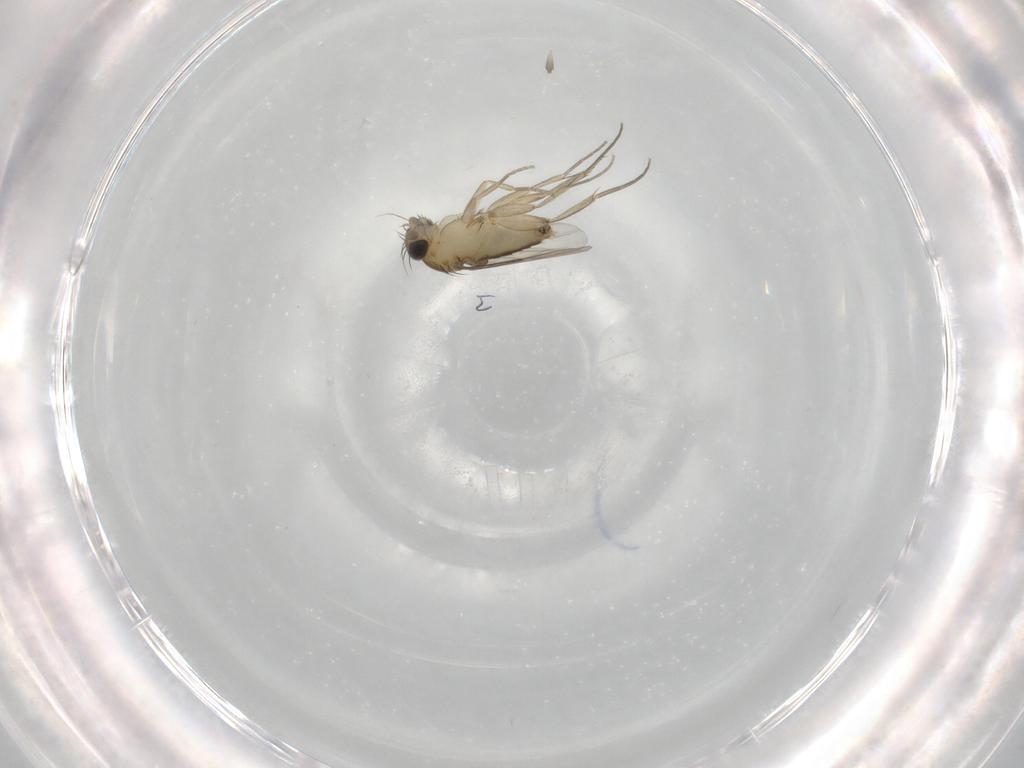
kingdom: Animalia
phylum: Arthropoda
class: Insecta
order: Diptera
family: Phoridae
